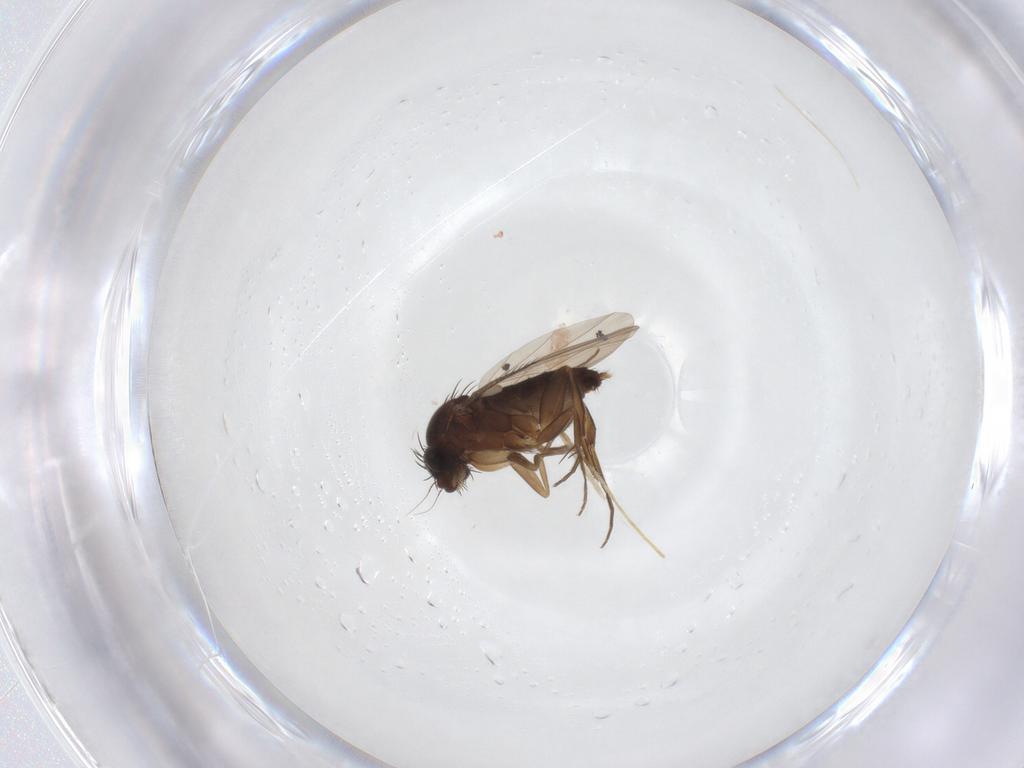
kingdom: Animalia
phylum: Arthropoda
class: Insecta
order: Diptera
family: Phoridae
